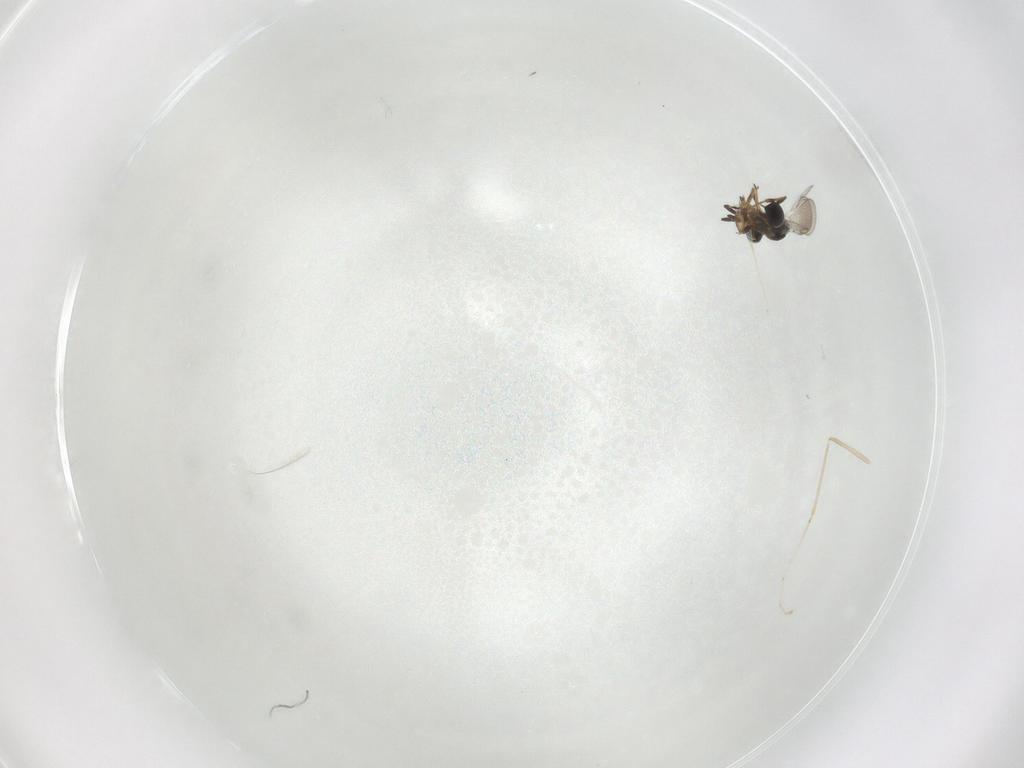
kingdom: Animalia
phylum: Arthropoda
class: Insecta
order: Hymenoptera
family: Platygastridae
